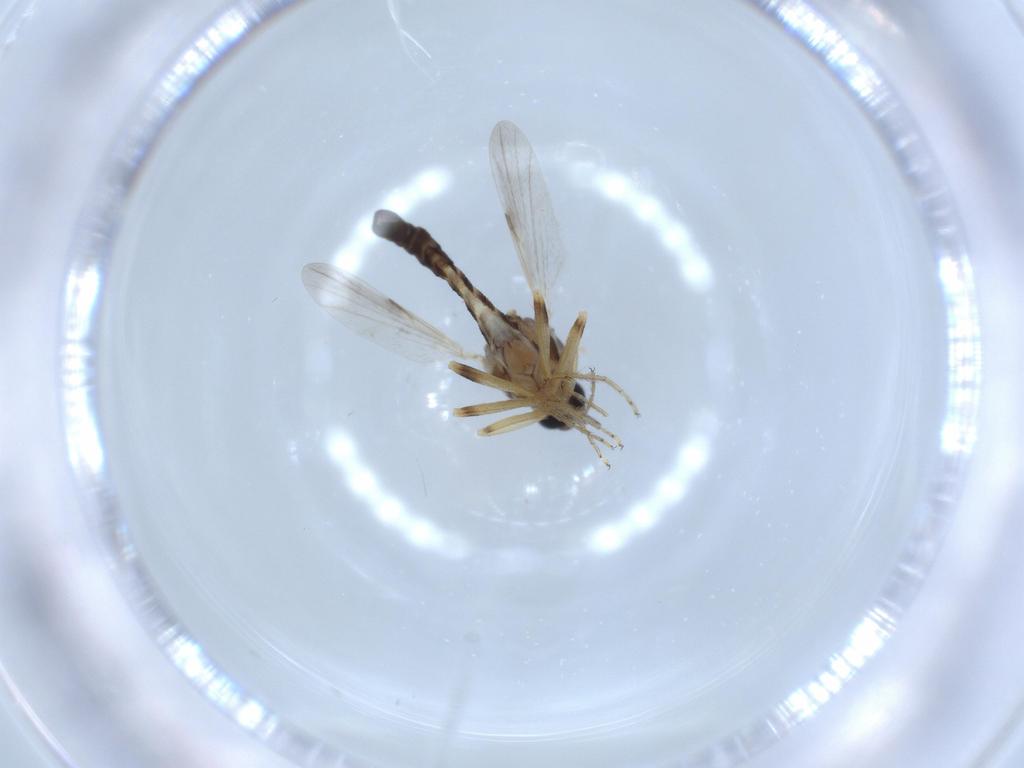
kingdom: Animalia
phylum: Arthropoda
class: Insecta
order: Diptera
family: Ceratopogonidae
